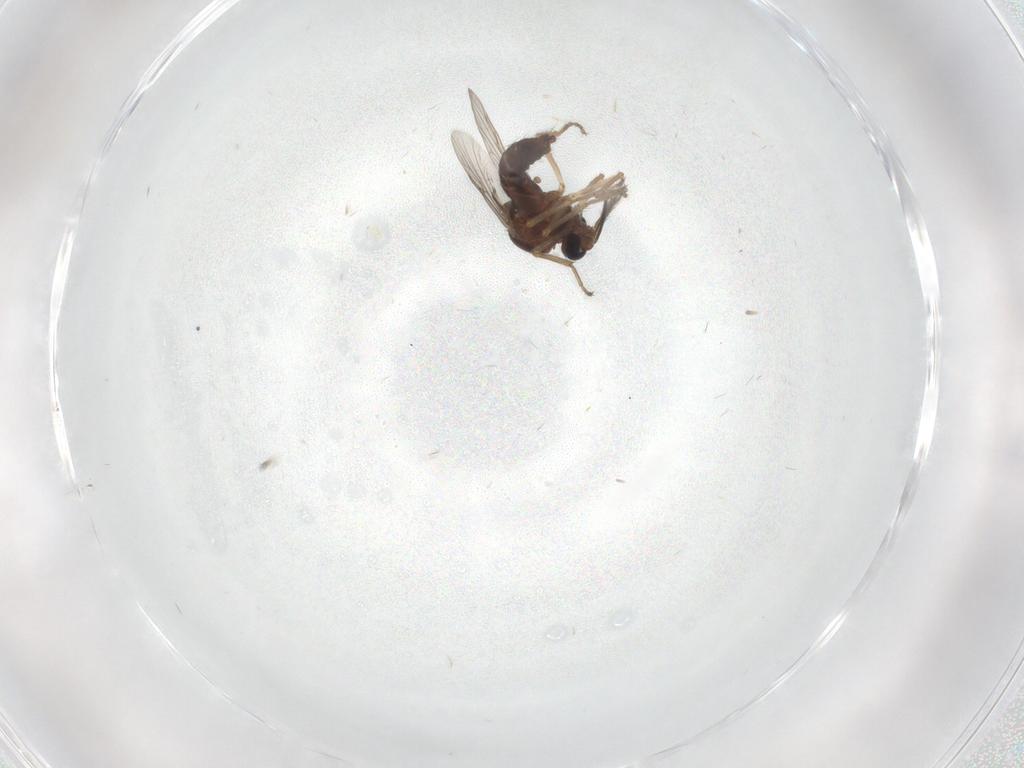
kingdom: Animalia
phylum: Arthropoda
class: Insecta
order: Diptera
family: Ceratopogonidae
